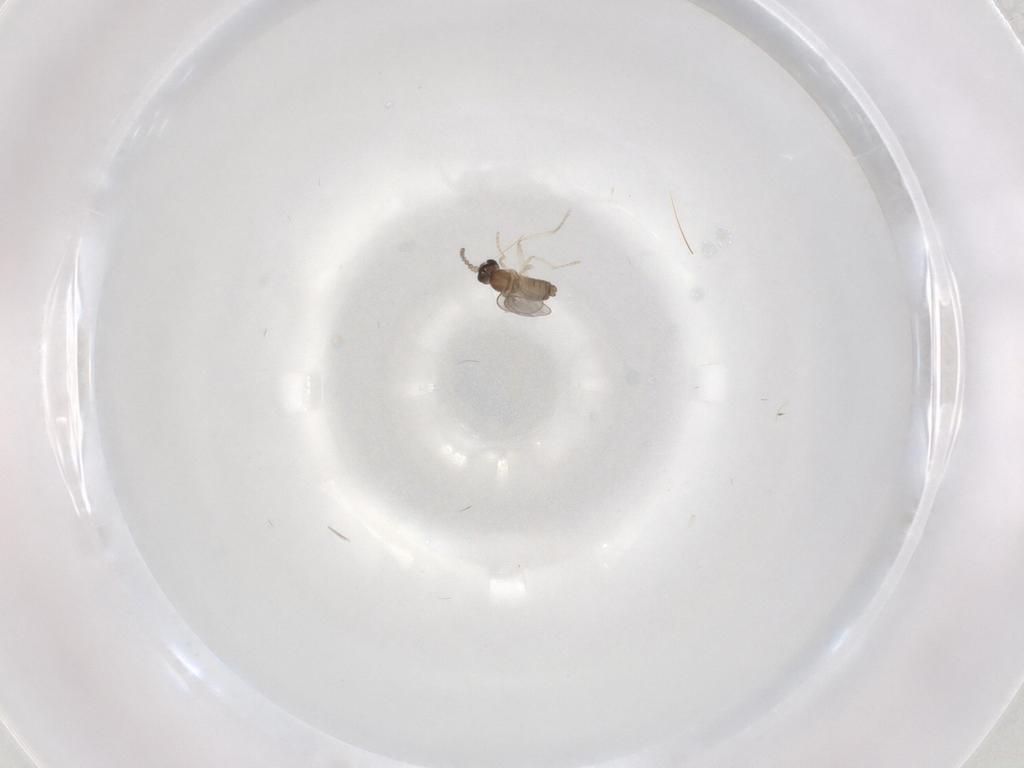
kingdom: Animalia
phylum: Arthropoda
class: Insecta
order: Diptera
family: Cecidomyiidae
